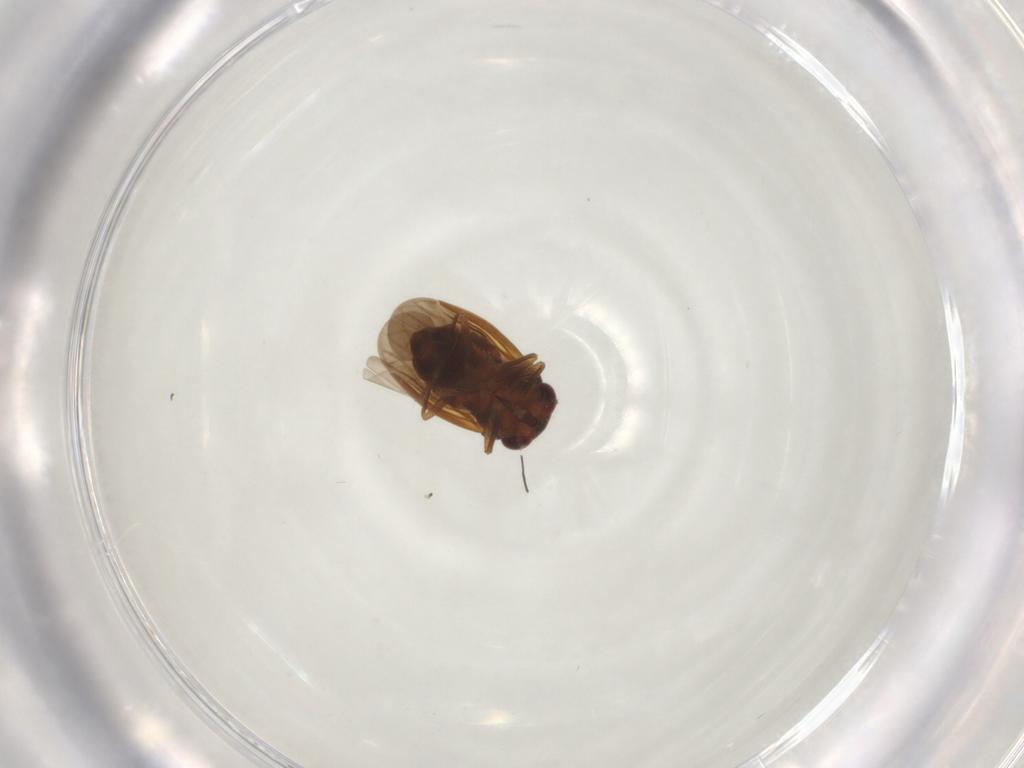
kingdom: Animalia
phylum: Arthropoda
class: Insecta
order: Hemiptera
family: Schizopteridae
